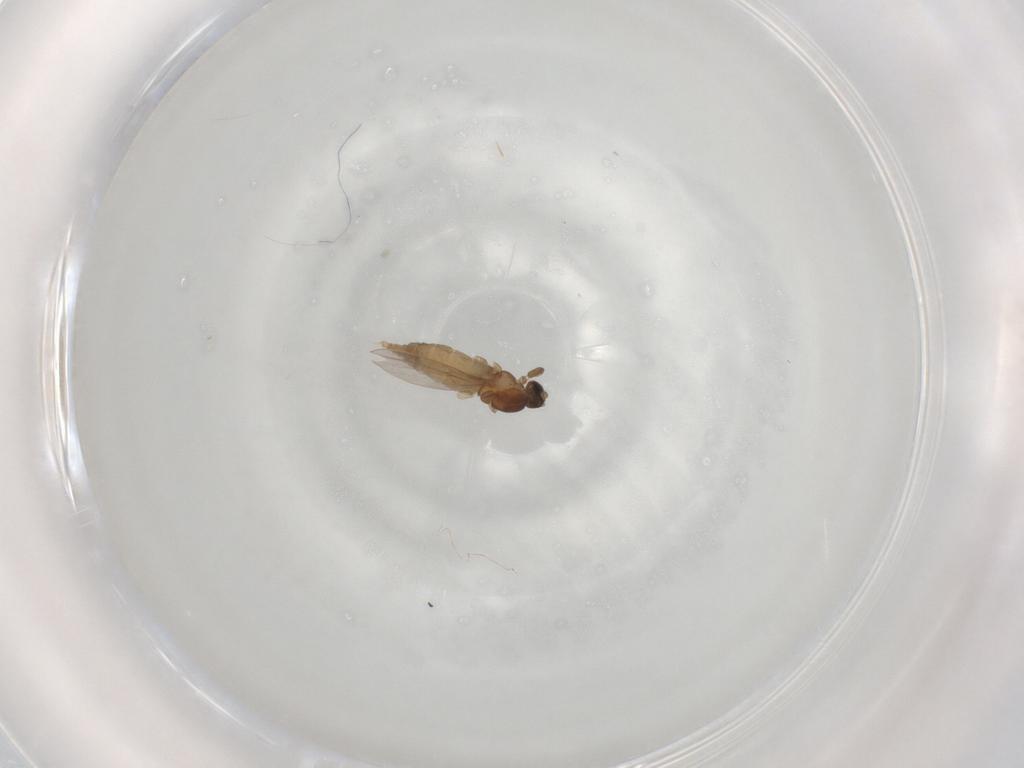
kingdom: Animalia
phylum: Arthropoda
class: Insecta
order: Diptera
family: Cecidomyiidae
